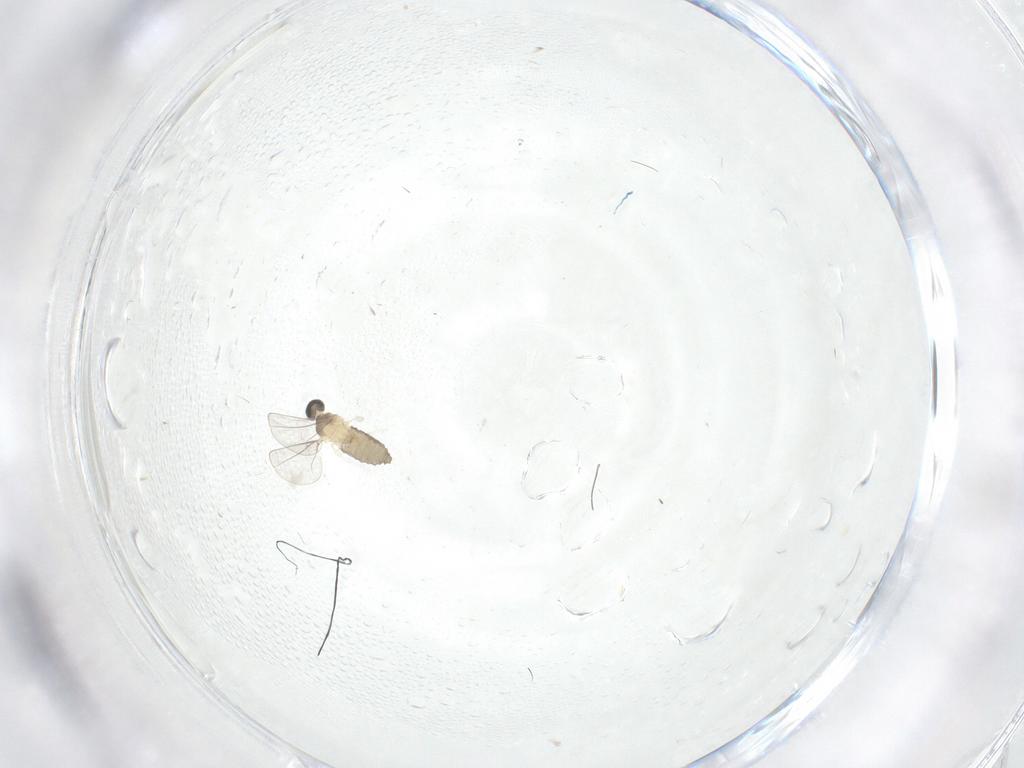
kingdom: Animalia
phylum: Arthropoda
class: Insecta
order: Diptera
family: Cecidomyiidae
